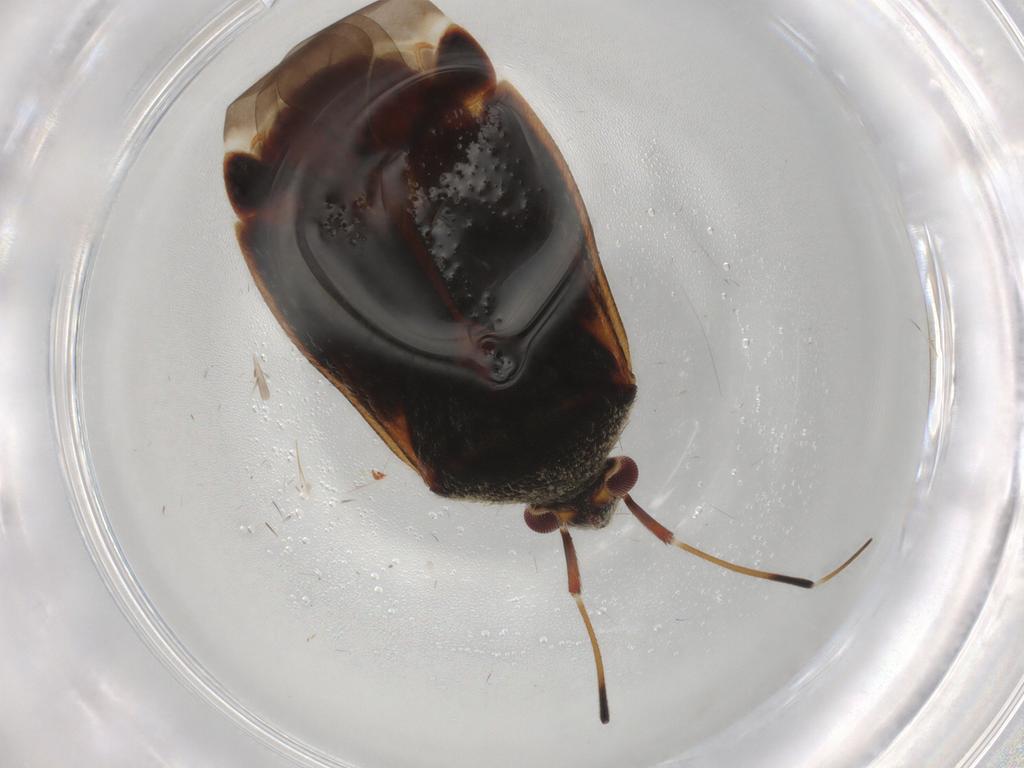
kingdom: Animalia
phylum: Arthropoda
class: Insecta
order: Hemiptera
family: Miridae
